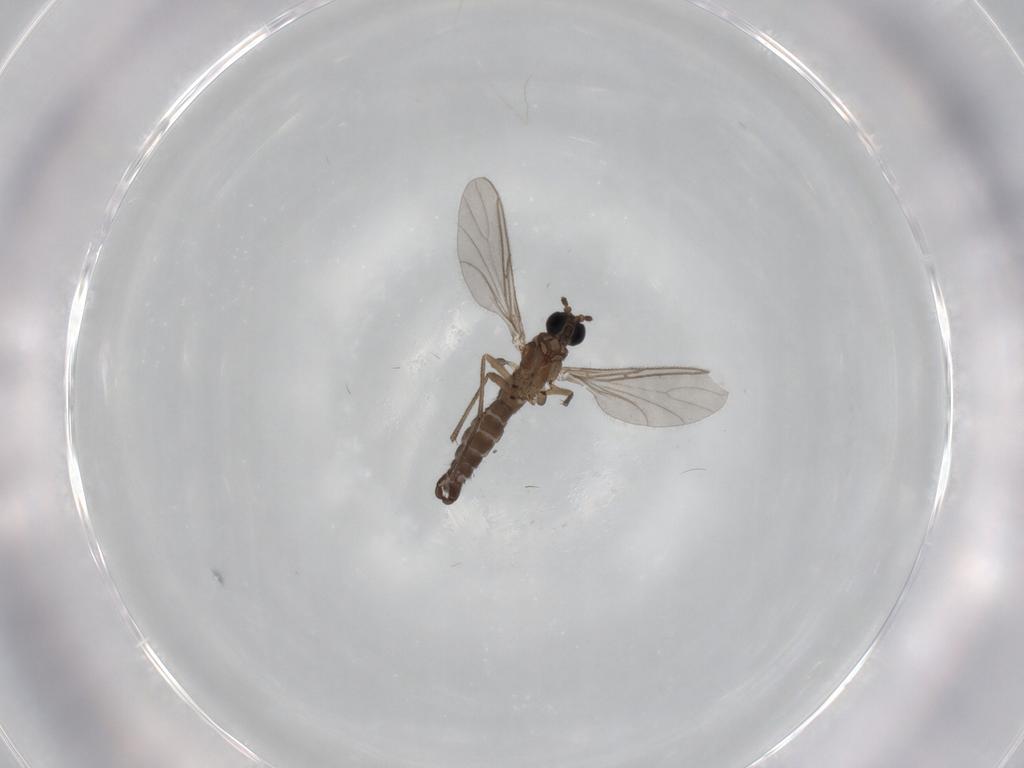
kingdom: Animalia
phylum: Arthropoda
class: Insecta
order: Diptera
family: Sciaridae
